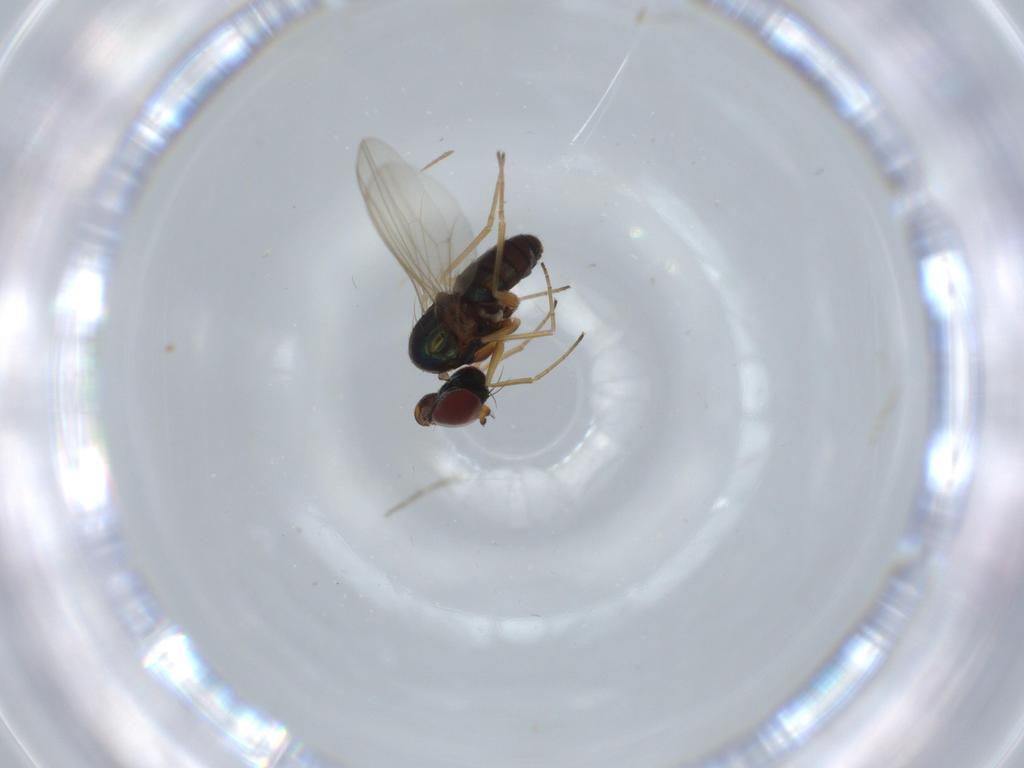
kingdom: Animalia
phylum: Arthropoda
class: Insecta
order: Diptera
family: Dolichopodidae
